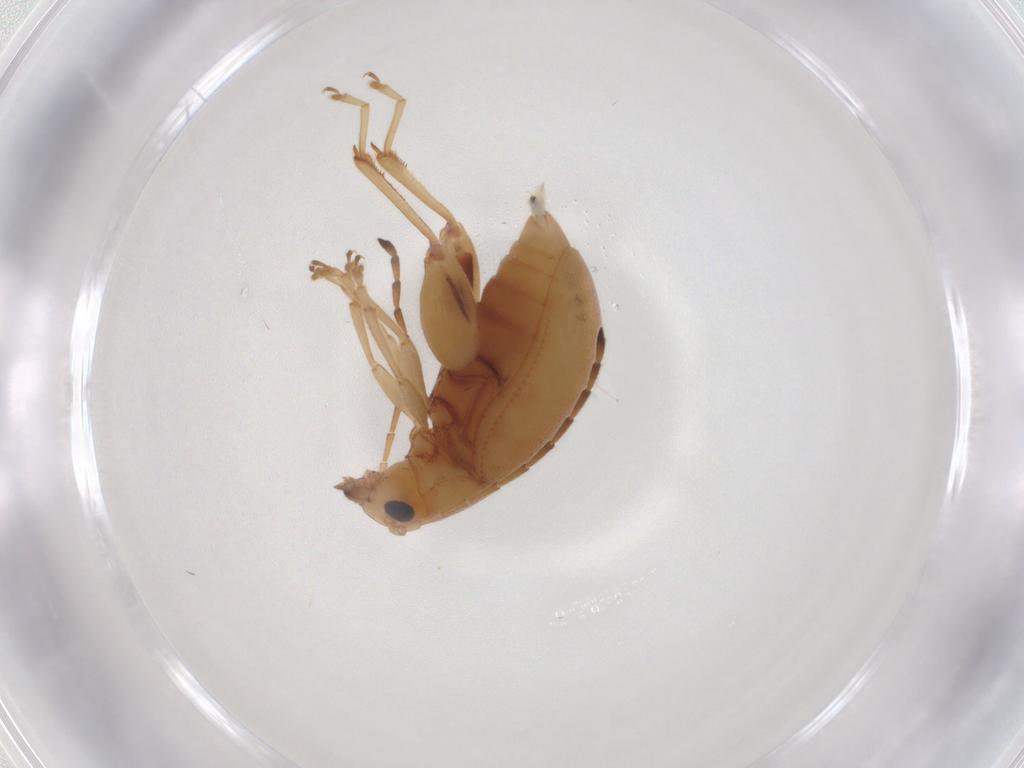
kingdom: Animalia
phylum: Arthropoda
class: Insecta
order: Coleoptera
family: Chrysomelidae
